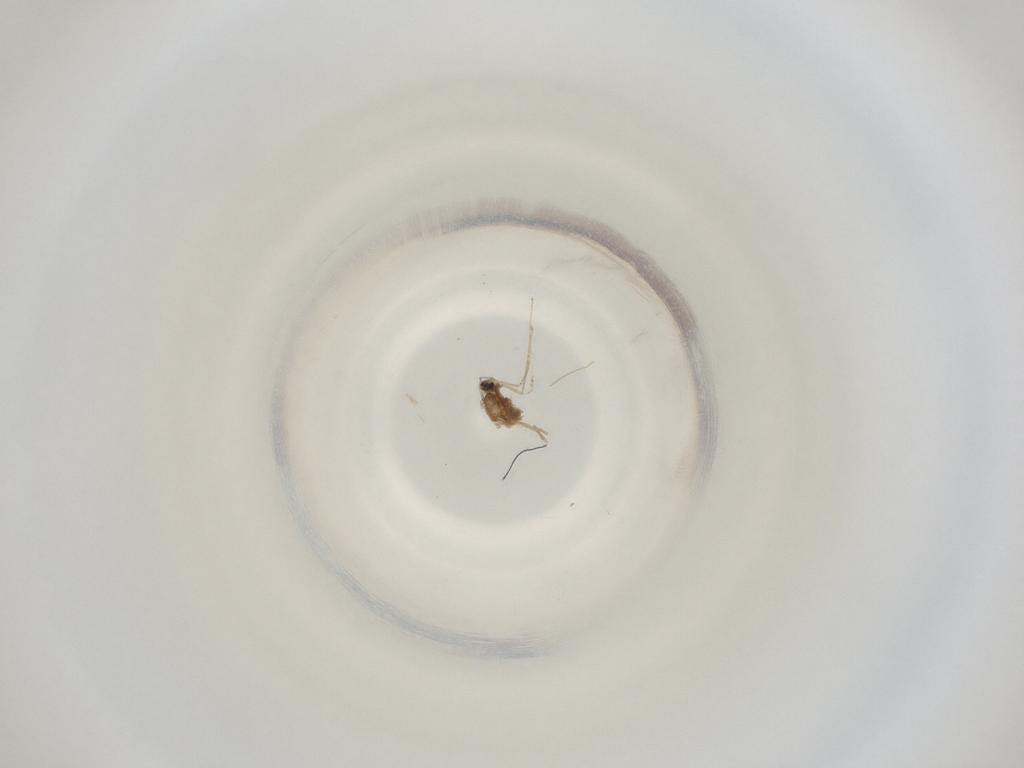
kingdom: Animalia
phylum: Arthropoda
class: Insecta
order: Diptera
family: Cecidomyiidae
